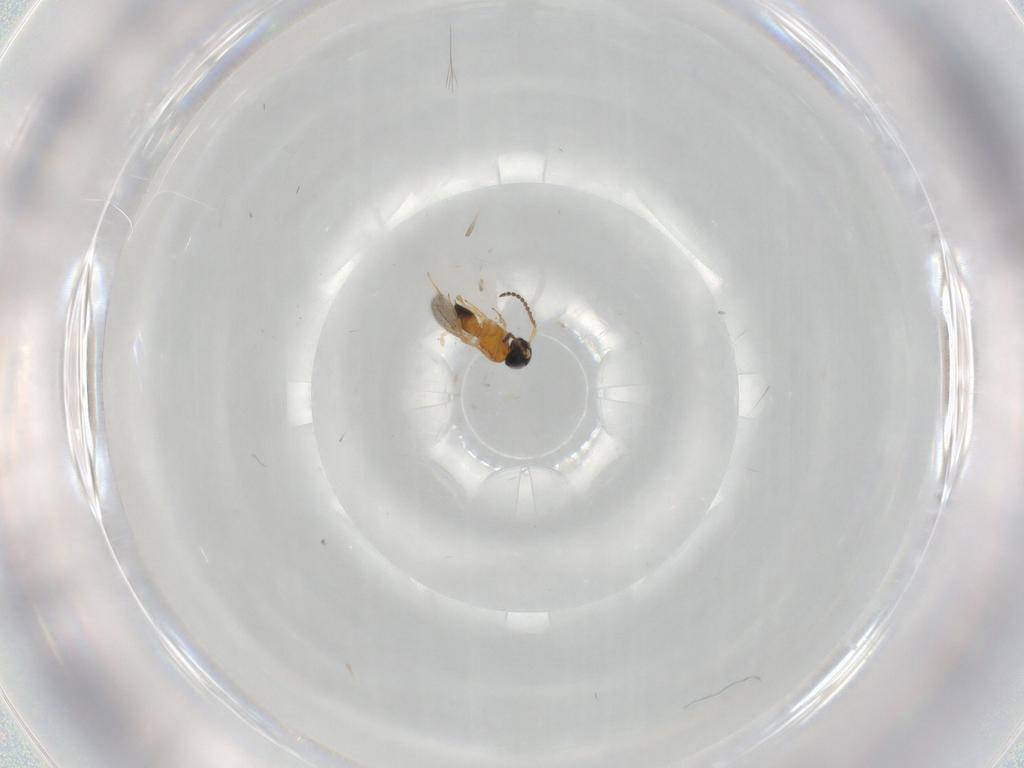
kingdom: Animalia
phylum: Arthropoda
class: Insecta
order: Hymenoptera
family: Scelionidae
